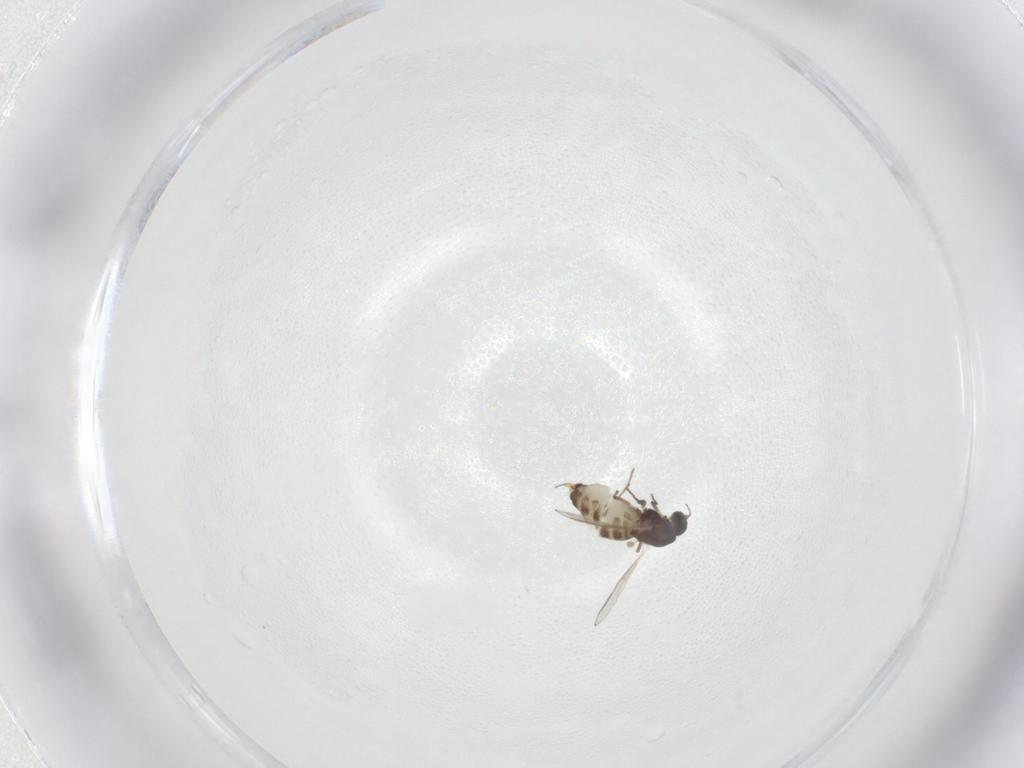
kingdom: Animalia
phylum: Arthropoda
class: Insecta
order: Diptera
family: Chironomidae
